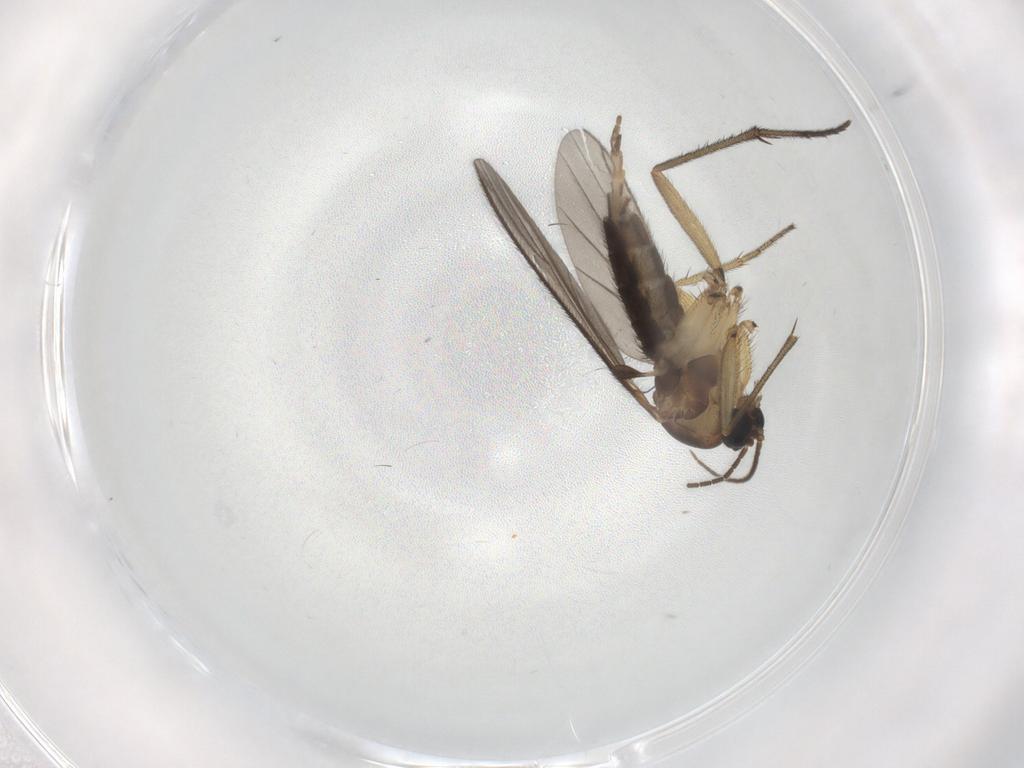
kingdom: Animalia
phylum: Arthropoda
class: Insecta
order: Diptera
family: Sciaridae
